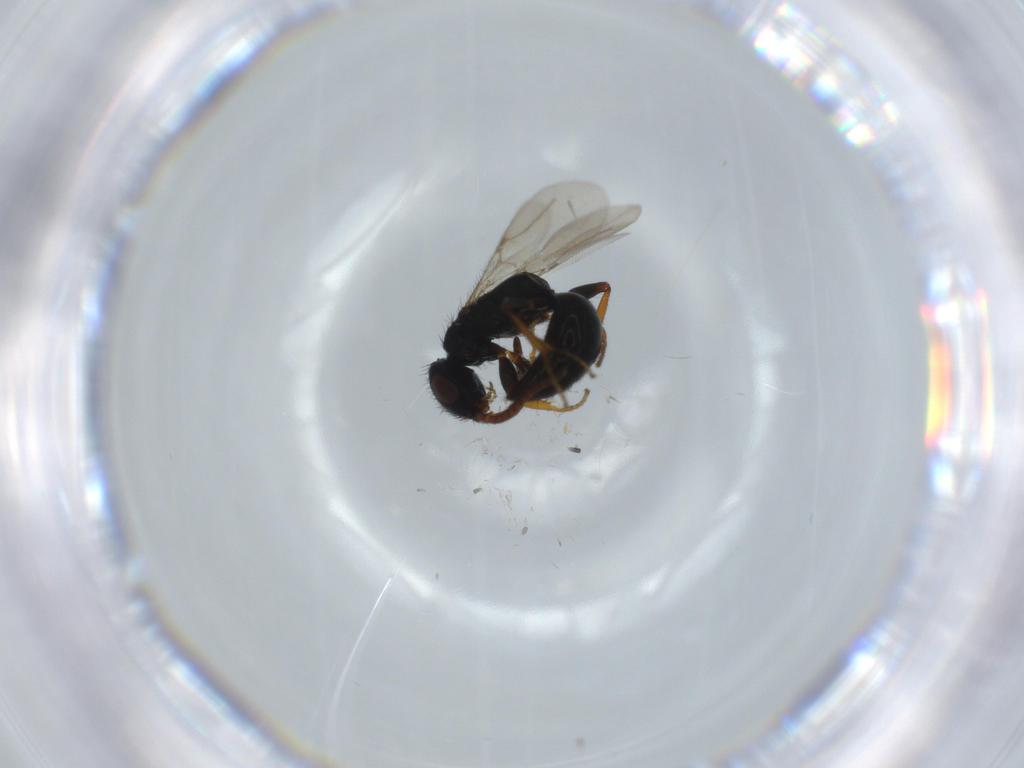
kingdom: Animalia
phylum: Arthropoda
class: Insecta
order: Hymenoptera
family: Bethylidae
